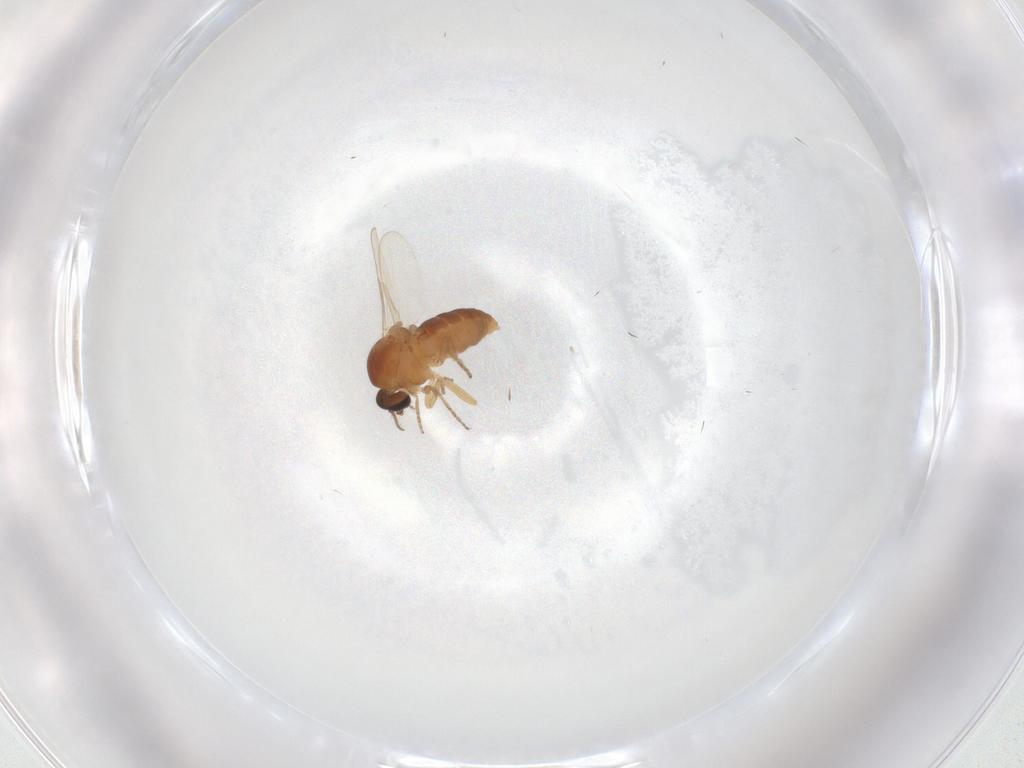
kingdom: Animalia
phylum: Arthropoda
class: Insecta
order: Diptera
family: Ceratopogonidae
